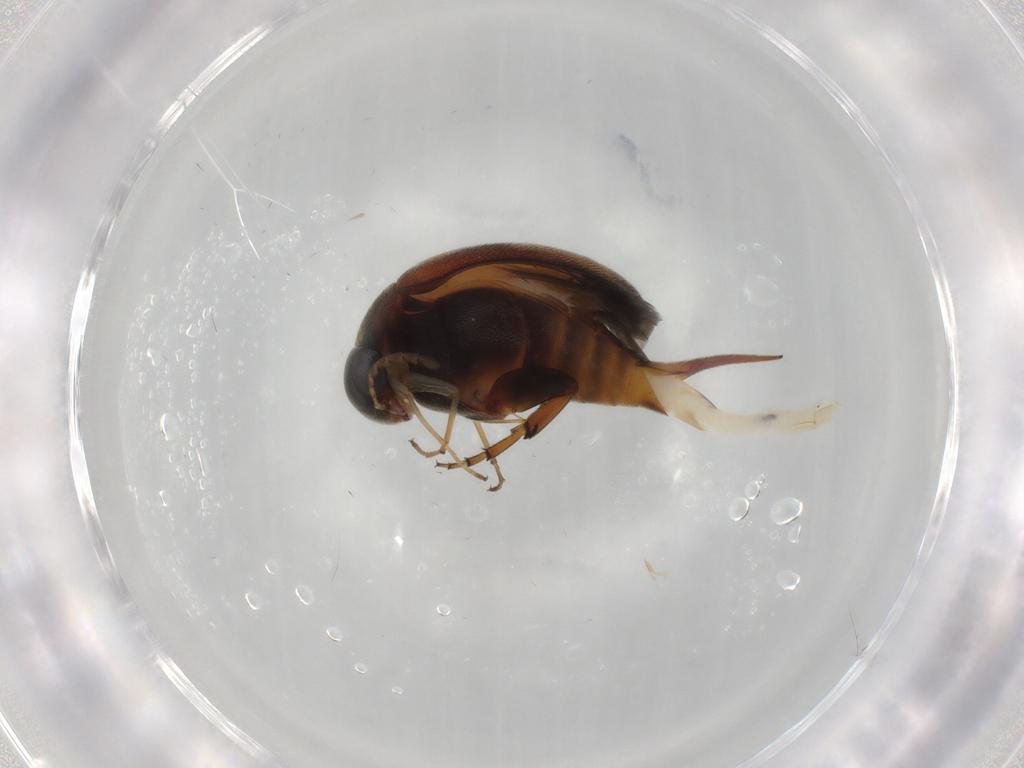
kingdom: Animalia
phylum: Arthropoda
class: Insecta
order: Coleoptera
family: Mordellidae
